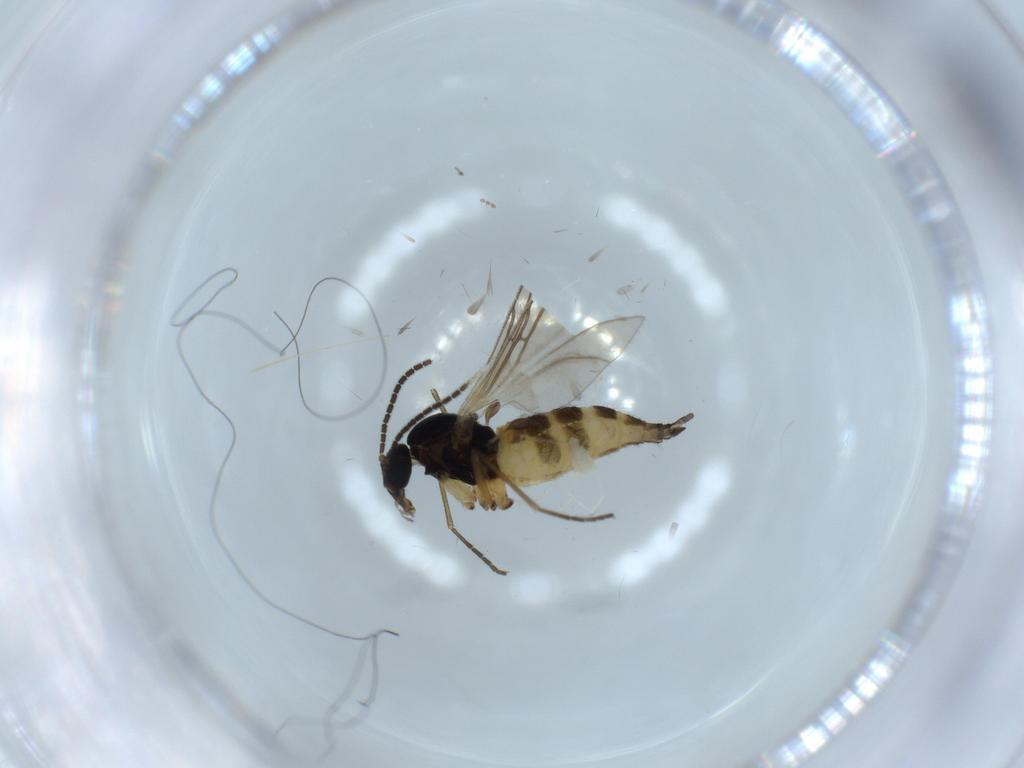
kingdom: Animalia
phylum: Arthropoda
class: Insecta
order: Diptera
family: Sciaridae
